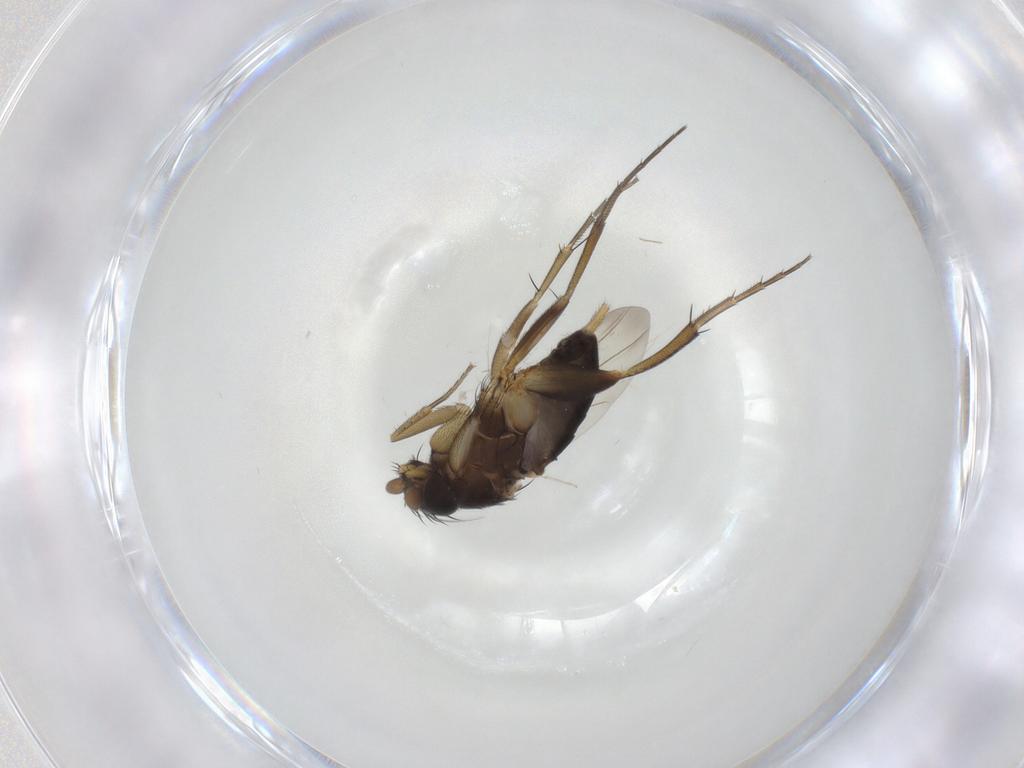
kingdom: Animalia
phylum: Arthropoda
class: Insecta
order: Diptera
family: Phoridae
